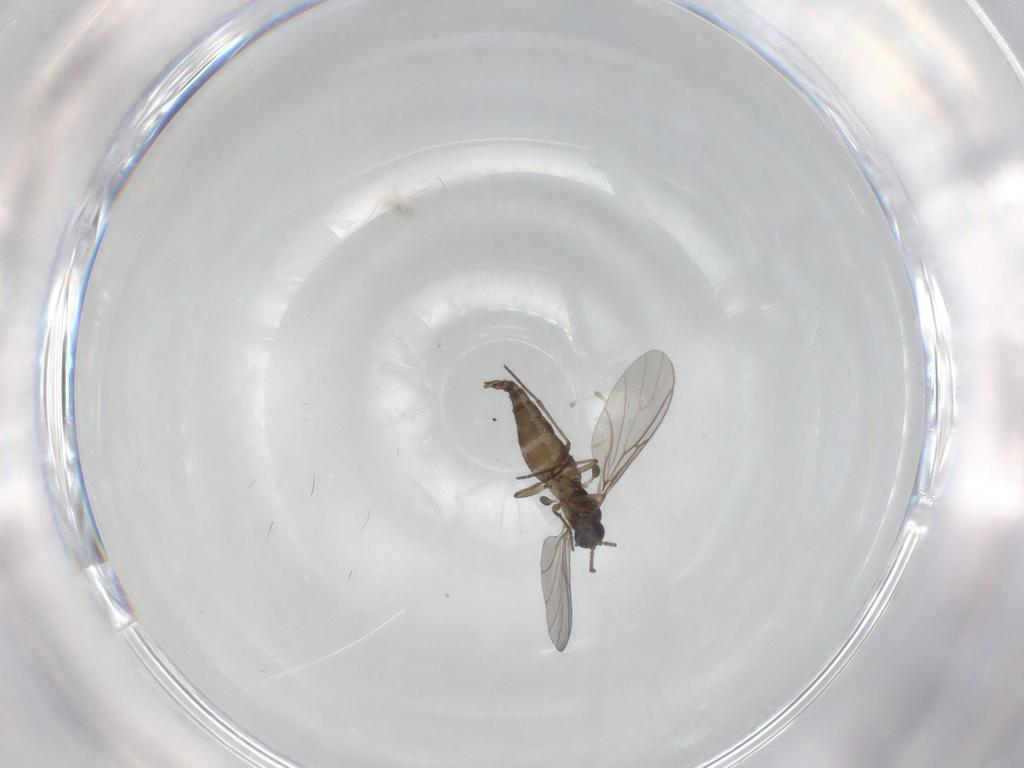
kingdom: Animalia
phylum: Arthropoda
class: Insecta
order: Diptera
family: Sciaridae
